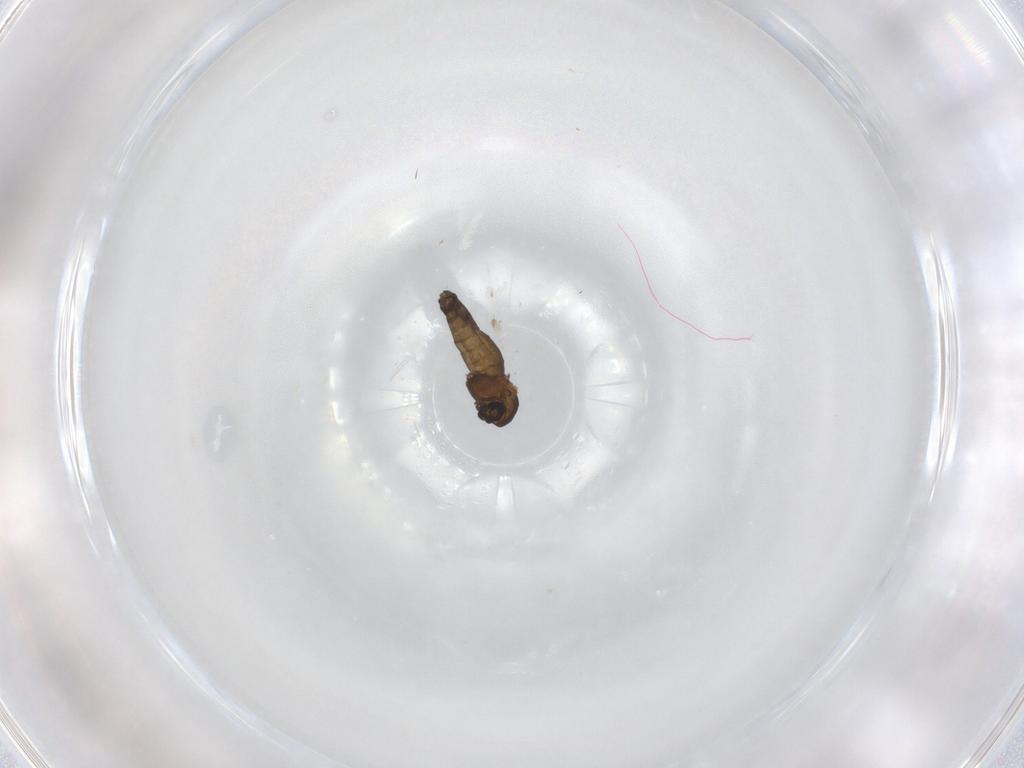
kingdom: Animalia
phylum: Arthropoda
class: Insecta
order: Diptera
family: Chironomidae
